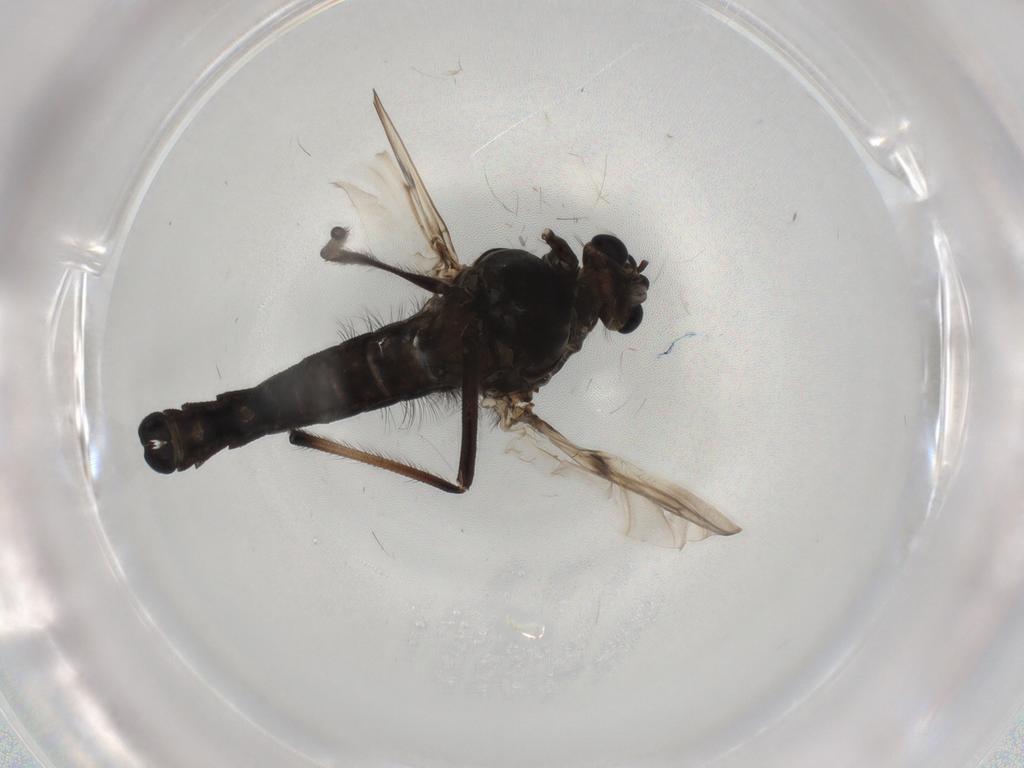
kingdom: Animalia
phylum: Arthropoda
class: Insecta
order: Diptera
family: Chironomidae
